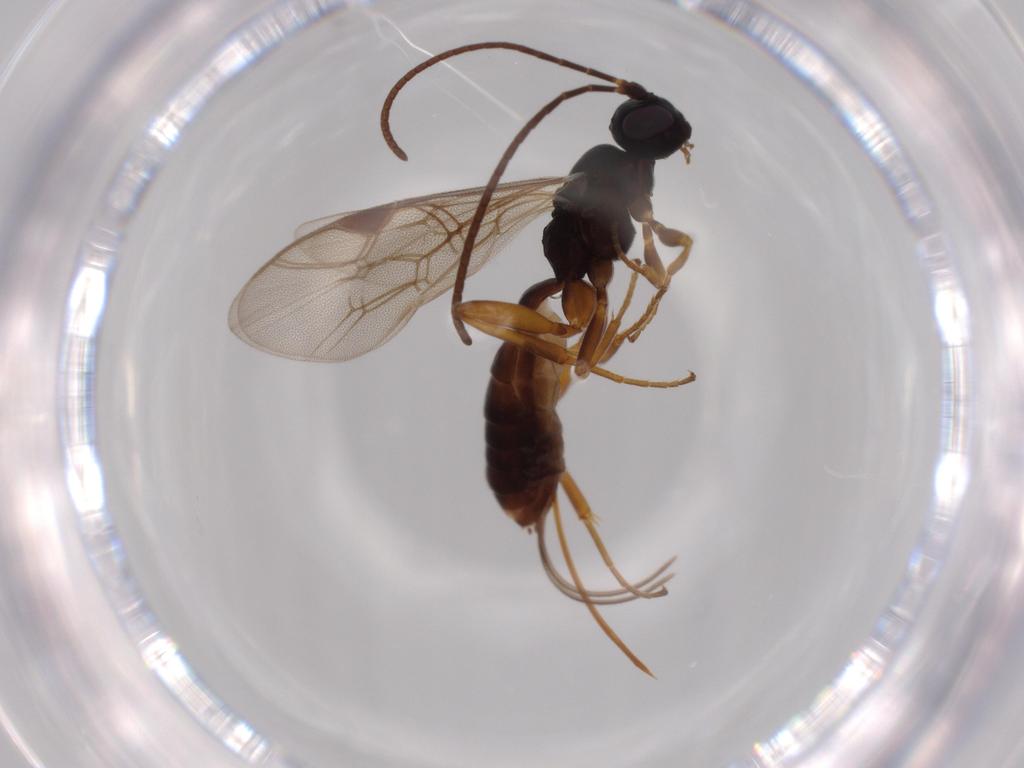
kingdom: Animalia
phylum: Arthropoda
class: Insecta
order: Hymenoptera
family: Ichneumonidae
